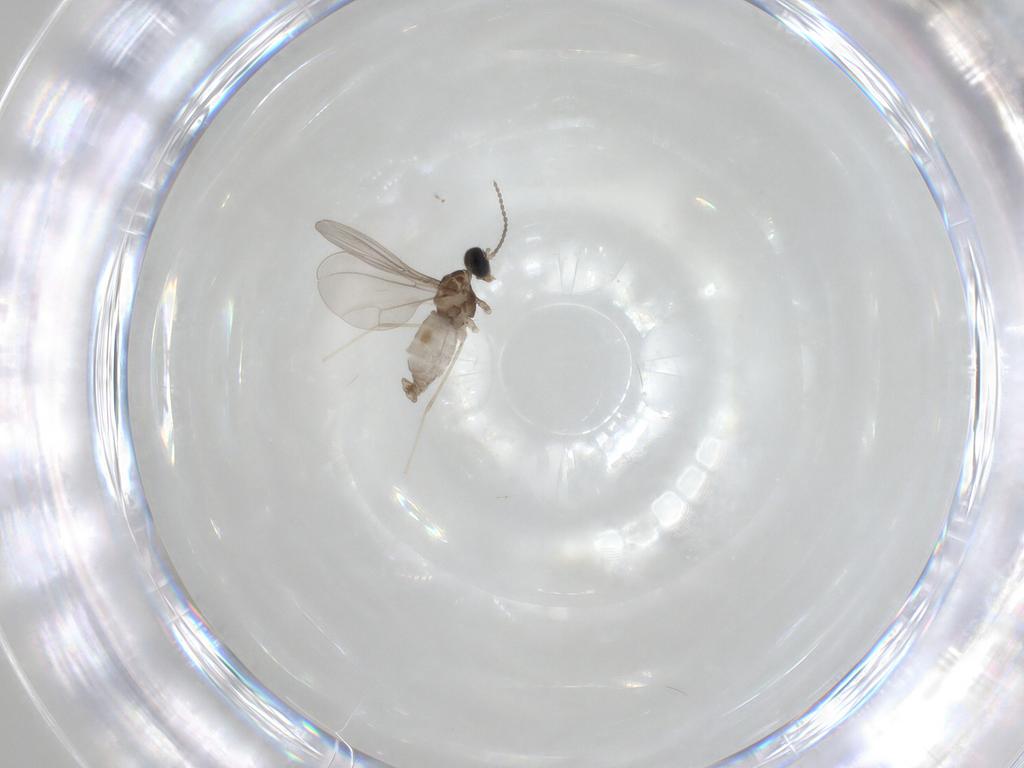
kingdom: Animalia
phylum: Arthropoda
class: Insecta
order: Diptera
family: Cecidomyiidae
